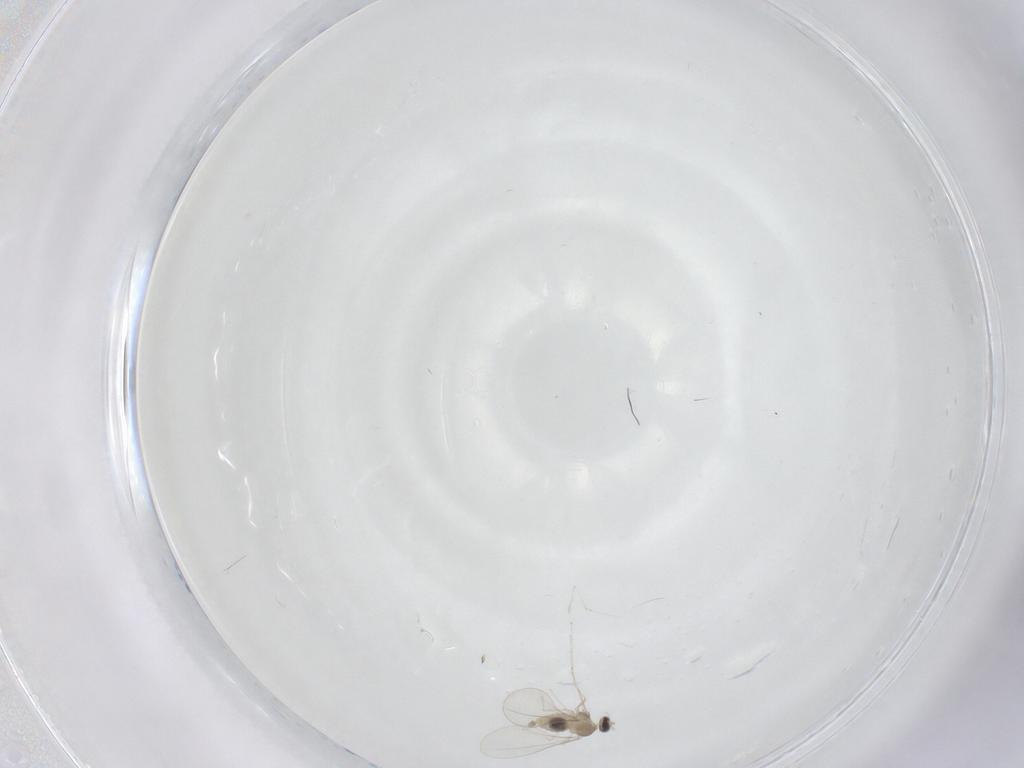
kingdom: Animalia
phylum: Arthropoda
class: Insecta
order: Diptera
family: Cecidomyiidae
